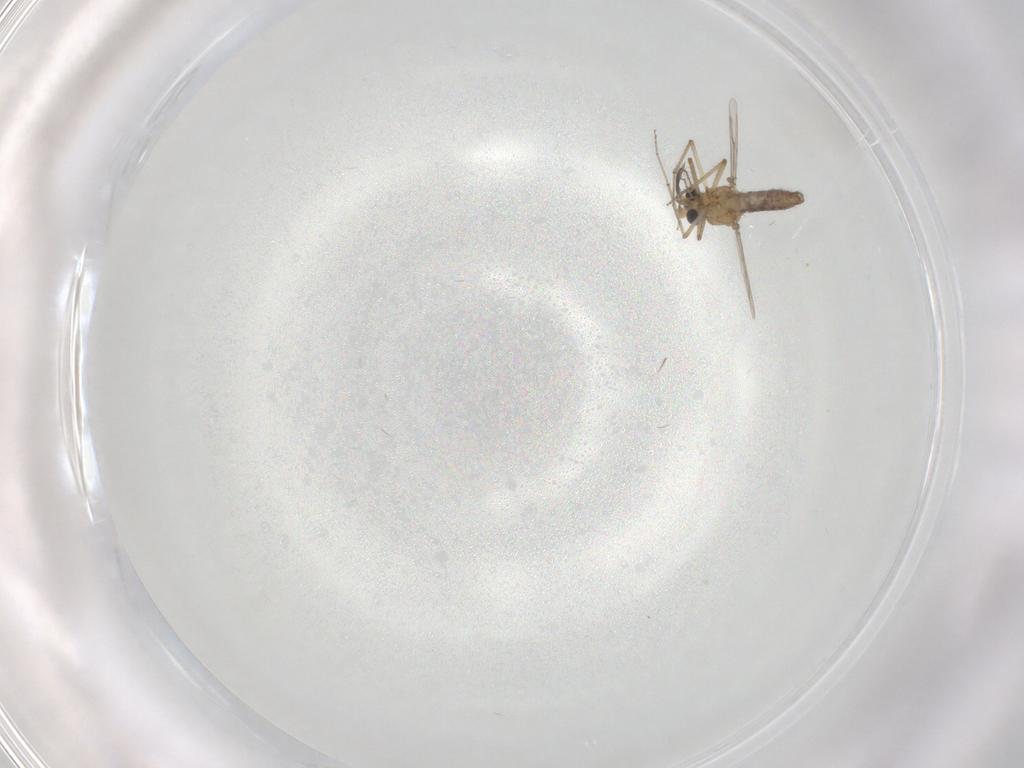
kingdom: Animalia
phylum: Arthropoda
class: Insecta
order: Diptera
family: Ceratopogonidae
